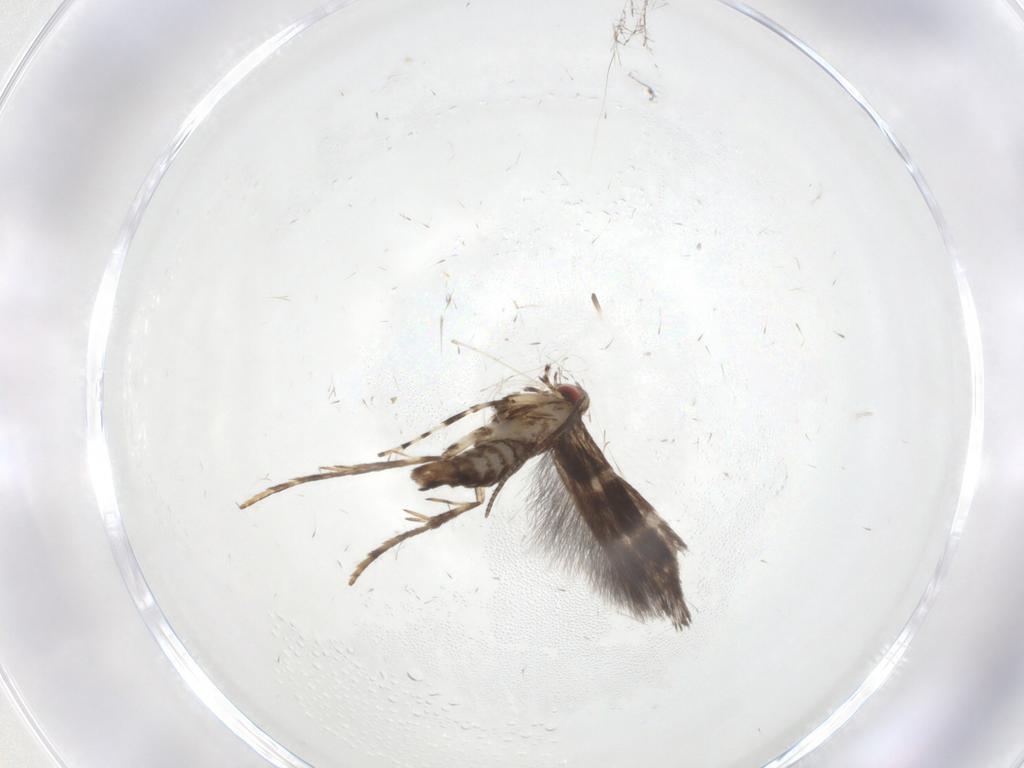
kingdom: Animalia
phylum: Arthropoda
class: Insecta
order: Lepidoptera
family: Gracillariidae
